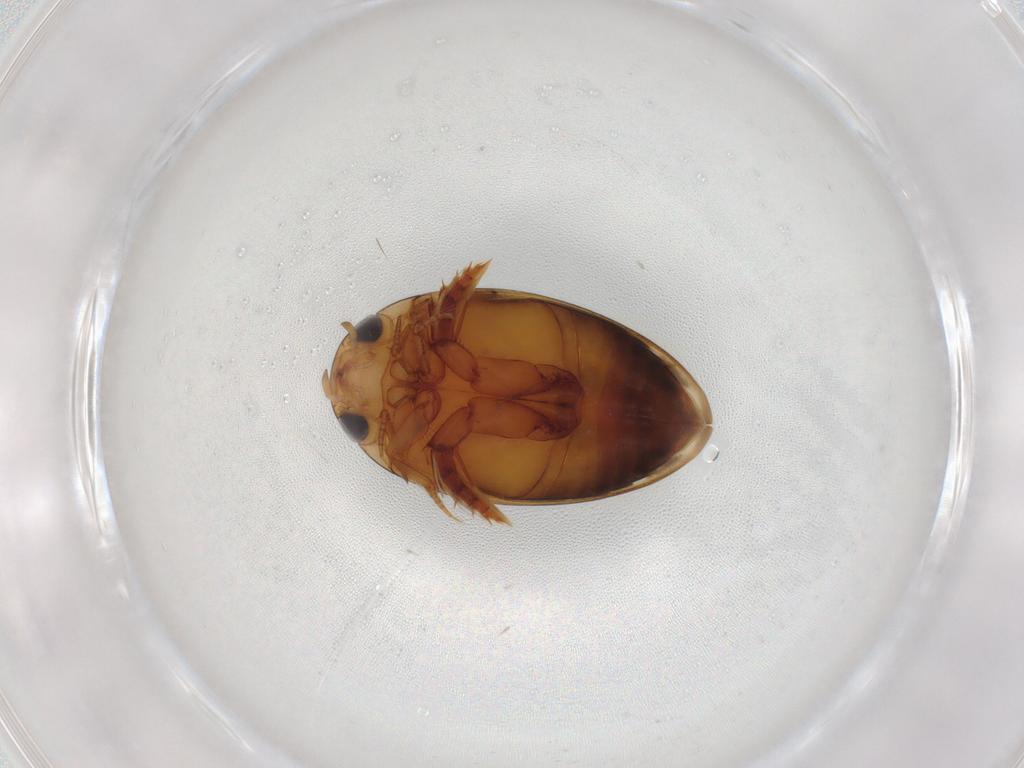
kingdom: Animalia
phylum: Arthropoda
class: Insecta
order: Coleoptera
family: Dytiscidae
